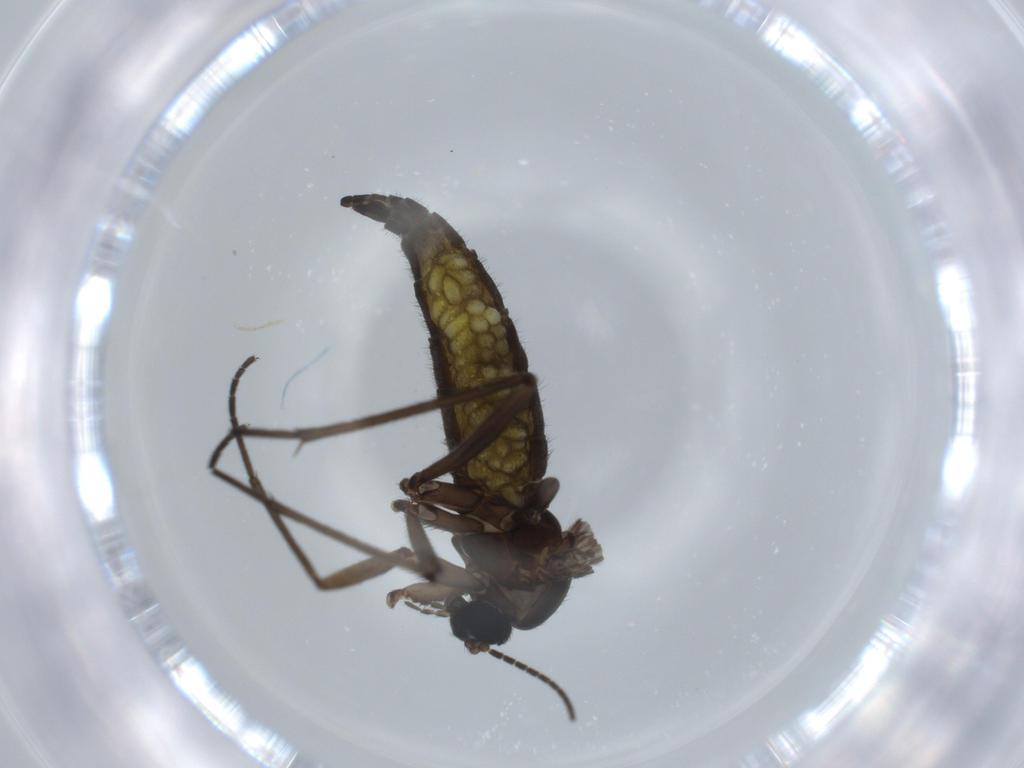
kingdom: Animalia
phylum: Arthropoda
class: Insecta
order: Diptera
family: Sciaridae
